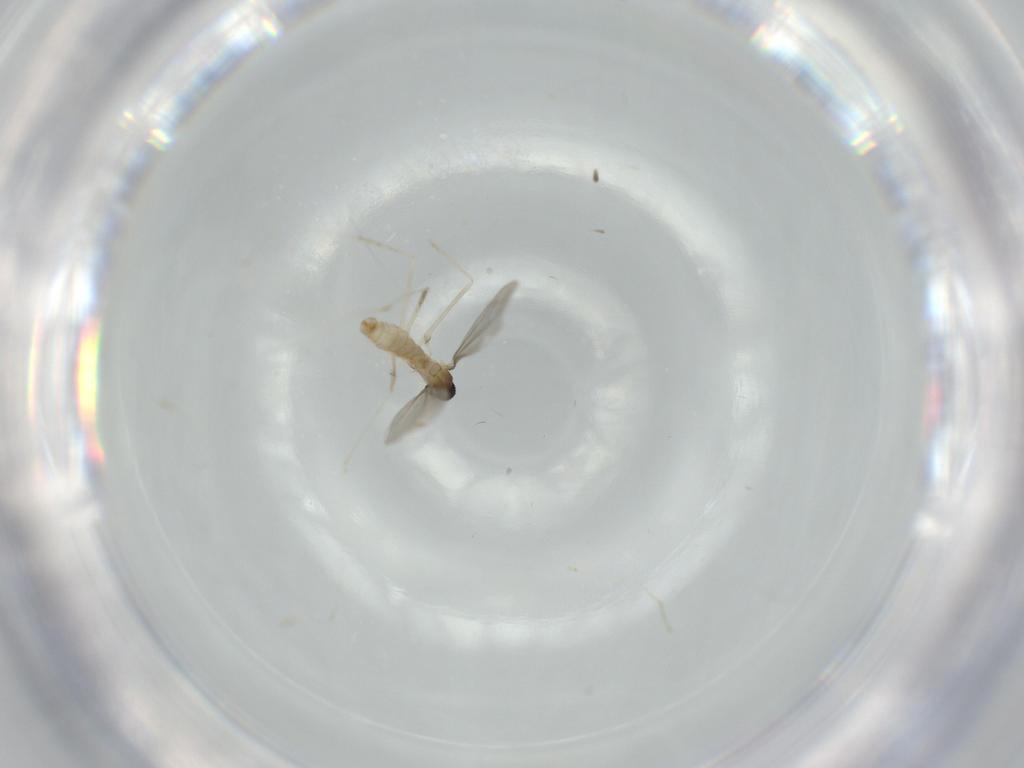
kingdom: Animalia
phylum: Arthropoda
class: Insecta
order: Diptera
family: Cecidomyiidae
